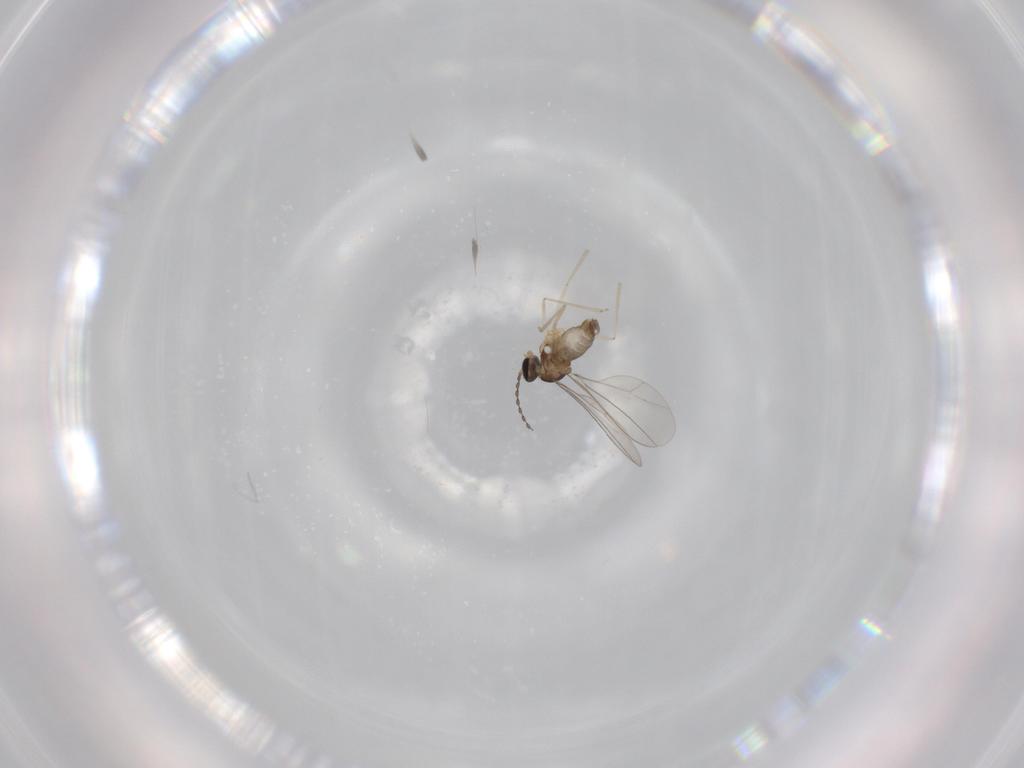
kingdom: Animalia
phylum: Arthropoda
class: Insecta
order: Diptera
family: Cecidomyiidae
